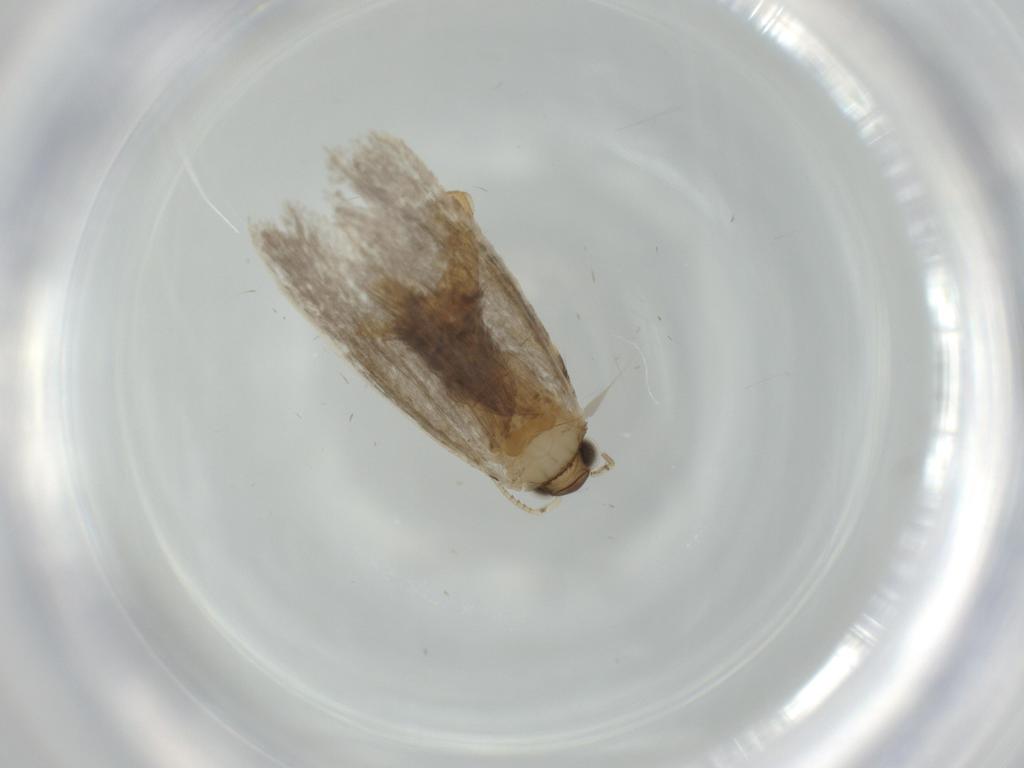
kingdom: Animalia
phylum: Arthropoda
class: Insecta
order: Lepidoptera
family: Tineidae
